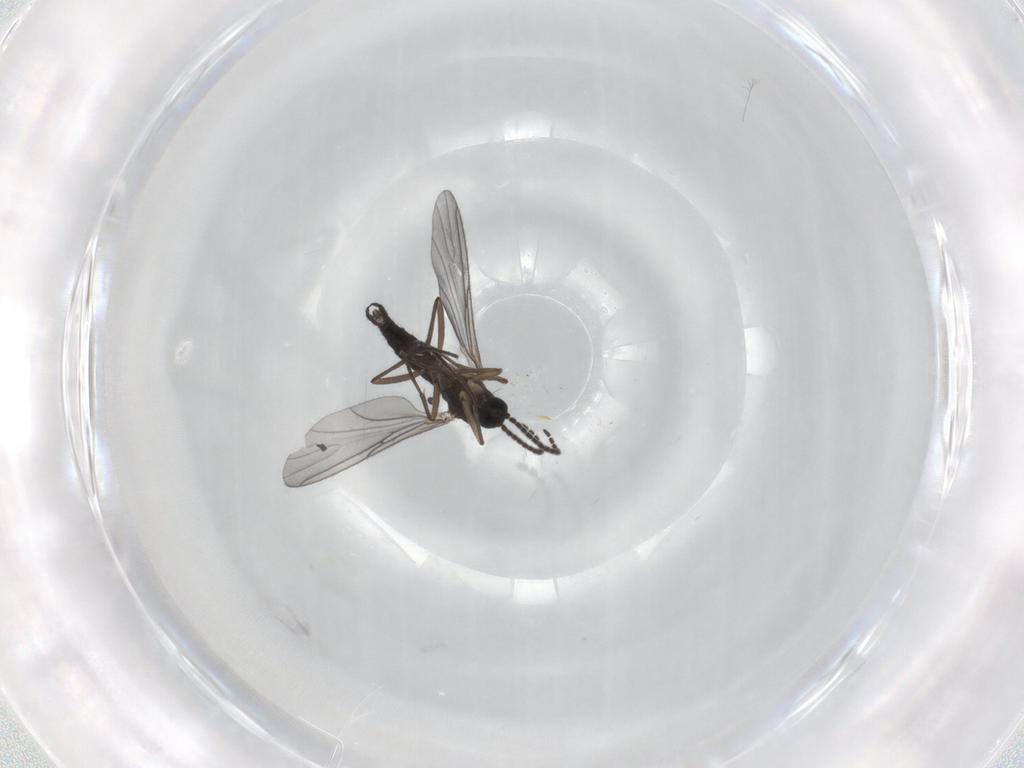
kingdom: Animalia
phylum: Arthropoda
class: Insecta
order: Diptera
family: Sciaridae
